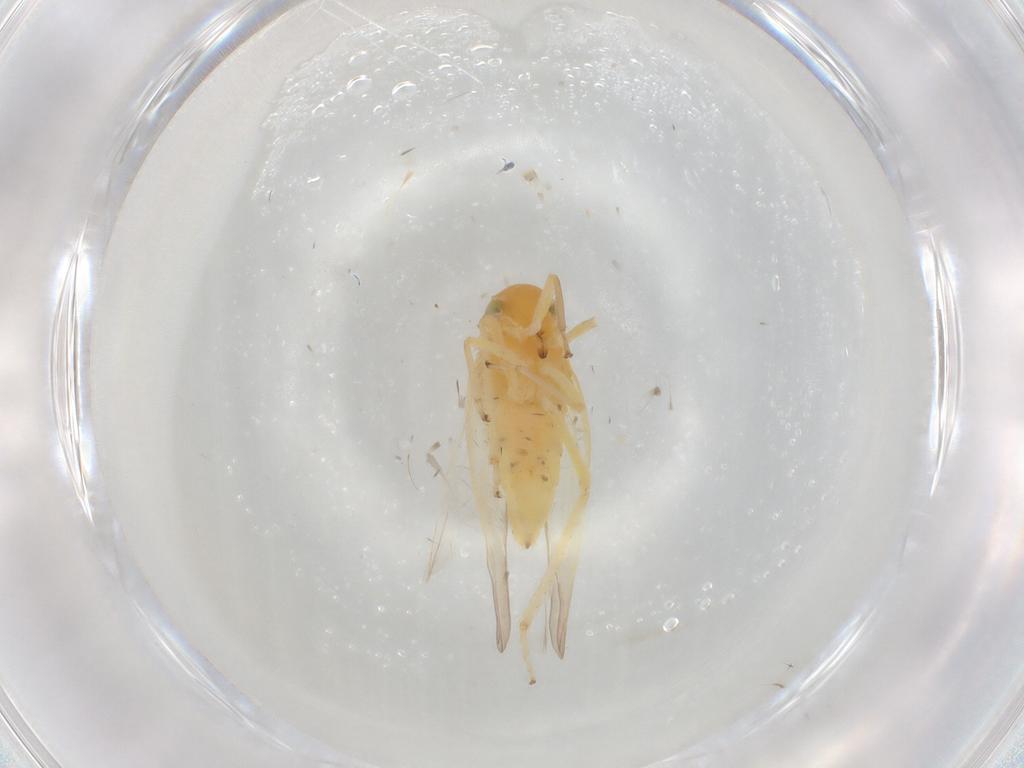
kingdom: Animalia
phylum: Arthropoda
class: Insecta
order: Hemiptera
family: Cicadellidae
